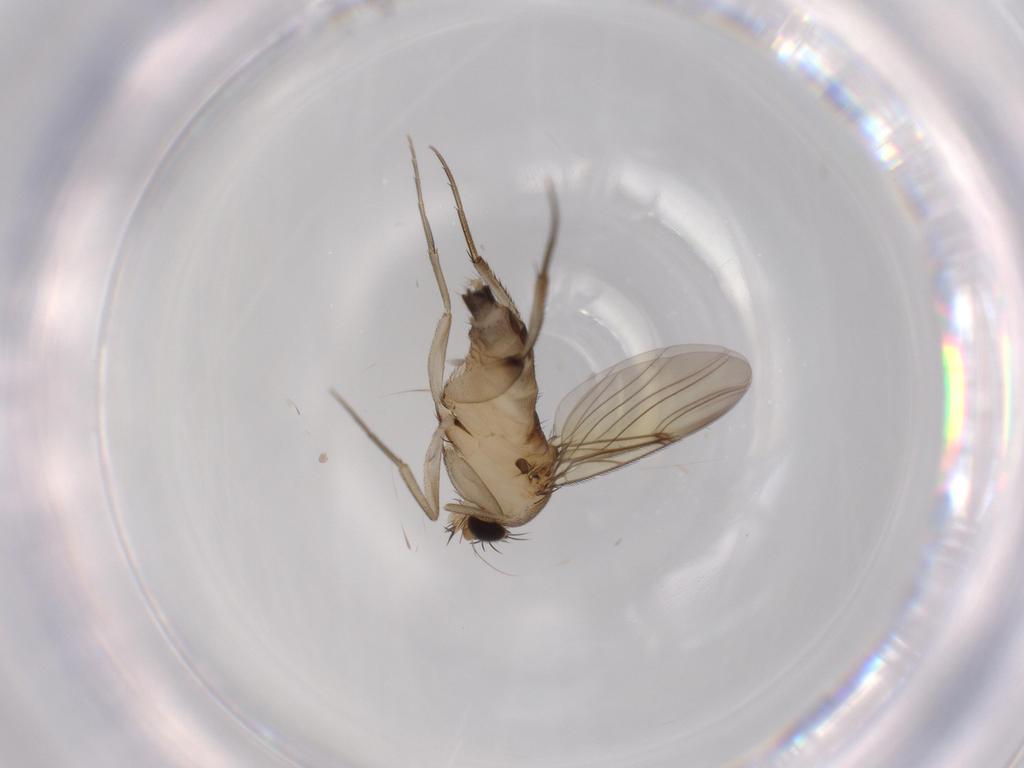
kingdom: Animalia
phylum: Arthropoda
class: Insecta
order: Diptera
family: Phoridae
